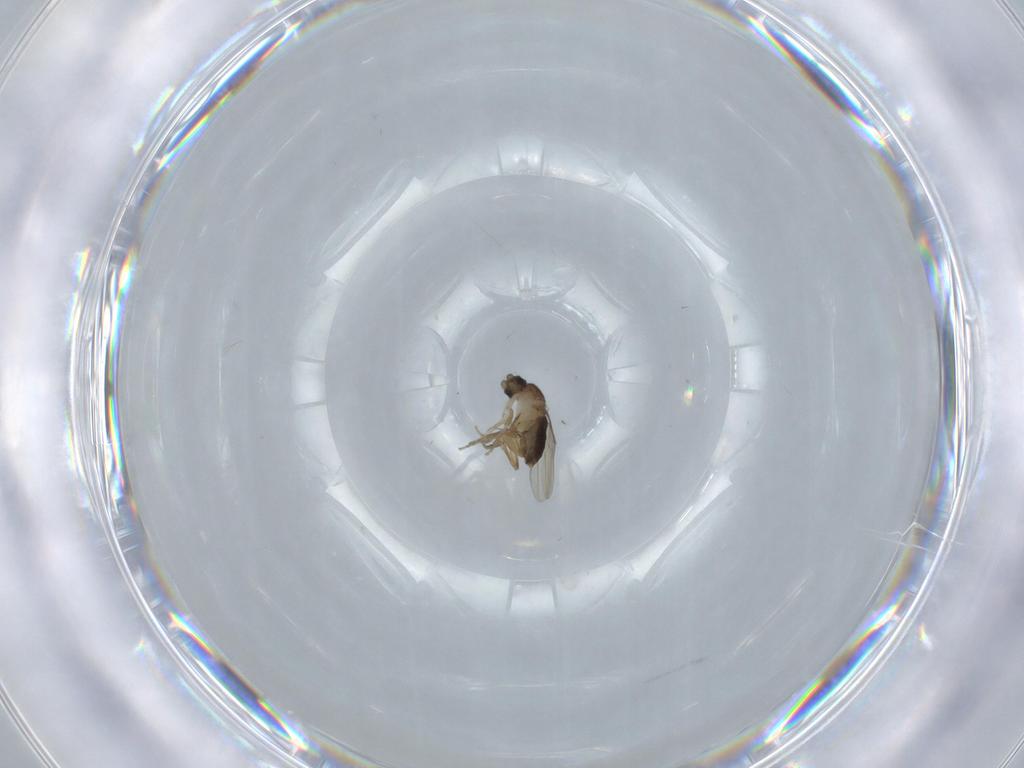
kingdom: Animalia
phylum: Arthropoda
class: Insecta
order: Diptera
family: Phoridae
